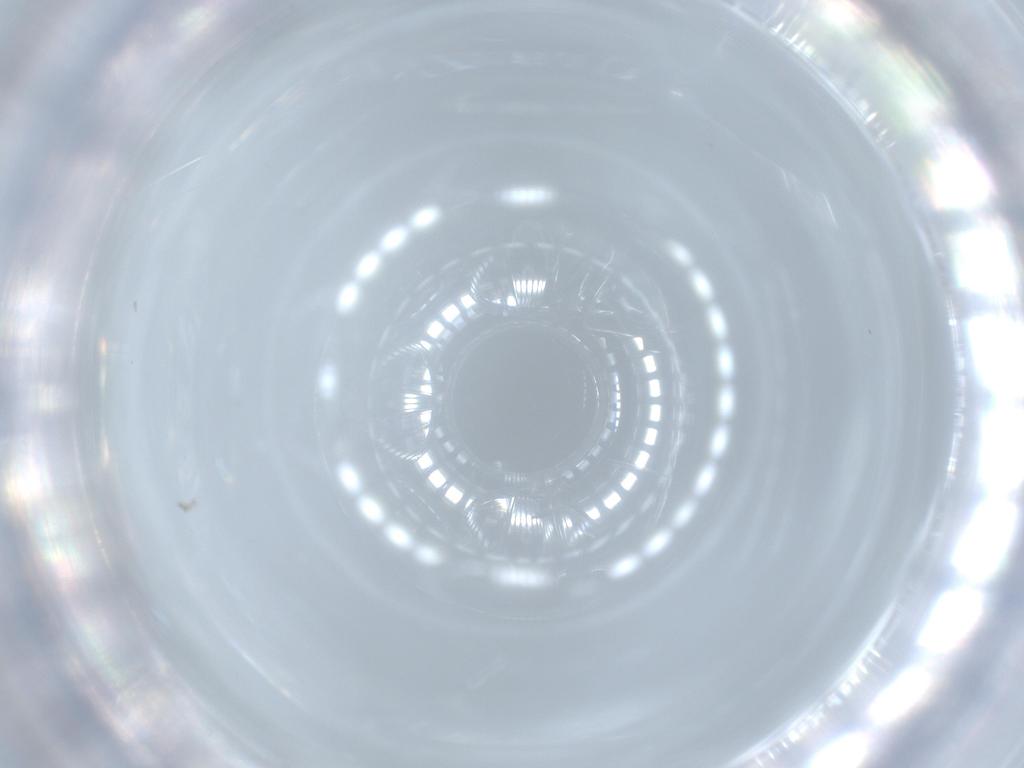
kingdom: Animalia
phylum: Arthropoda
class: Insecta
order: Diptera
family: Cecidomyiidae
